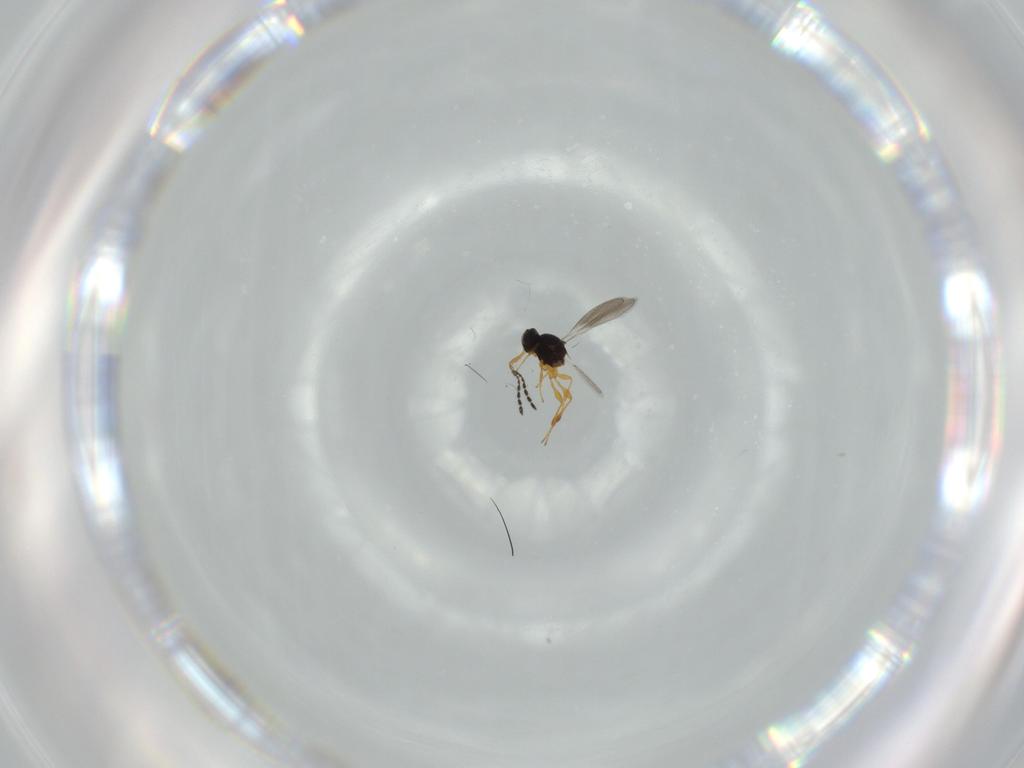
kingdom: Animalia
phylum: Arthropoda
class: Insecta
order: Hymenoptera
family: Platygastridae
